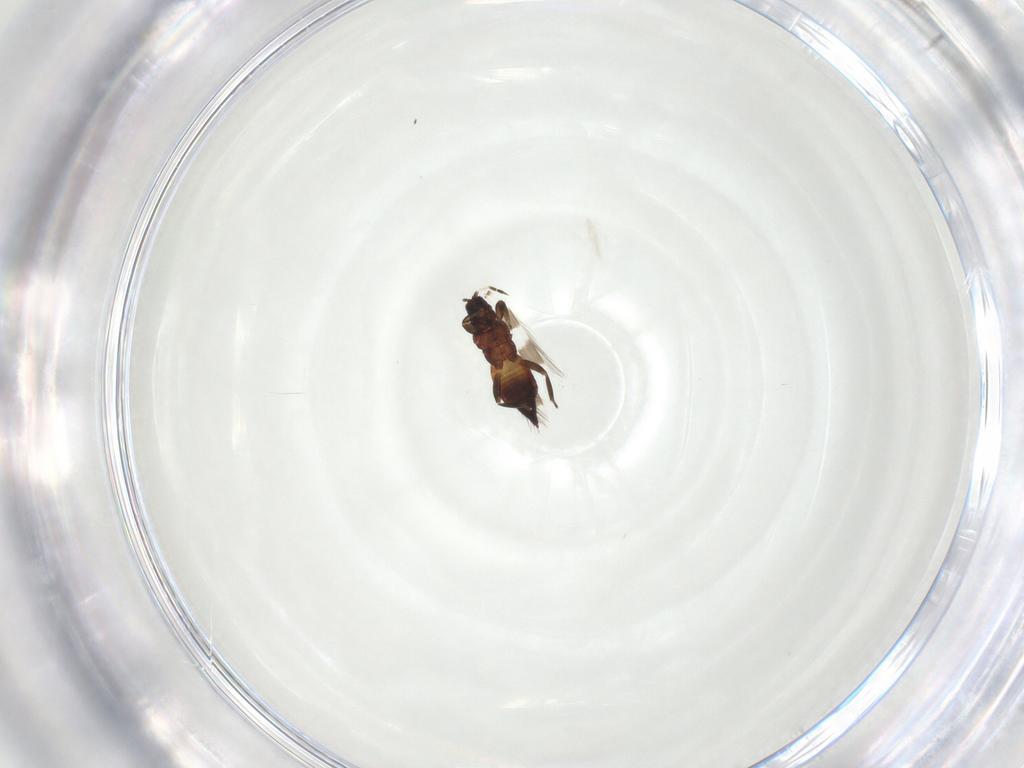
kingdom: Animalia
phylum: Arthropoda
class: Insecta
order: Thysanoptera
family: Aeolothripidae
